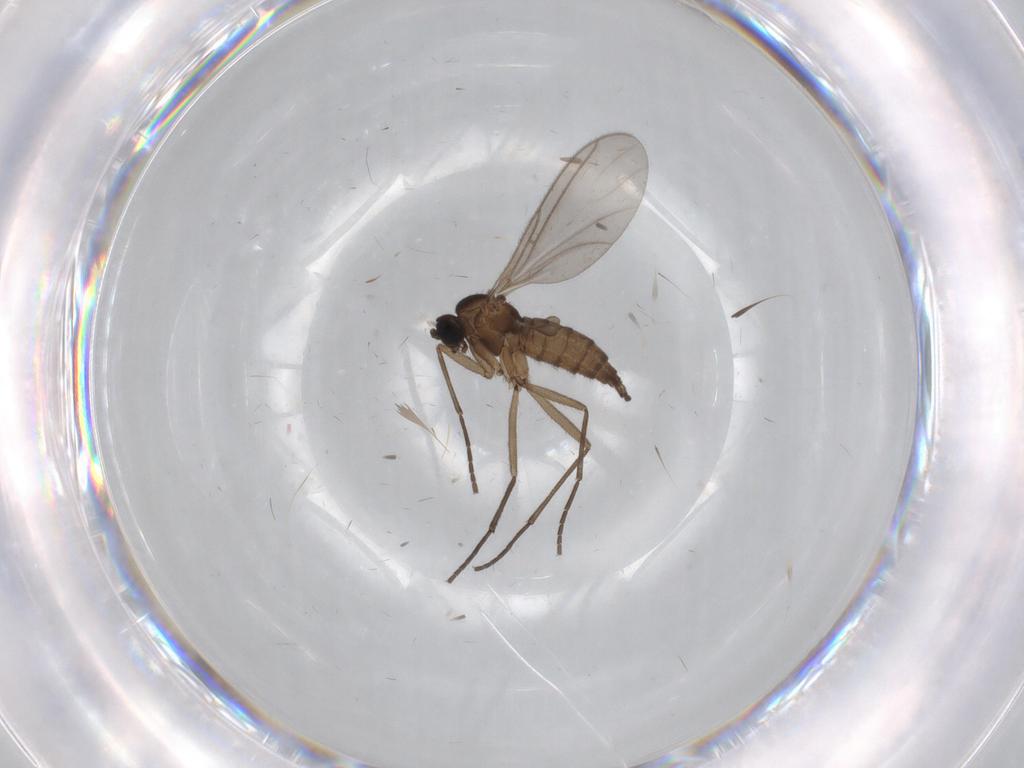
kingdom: Animalia
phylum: Arthropoda
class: Insecta
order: Diptera
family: Sciaridae
